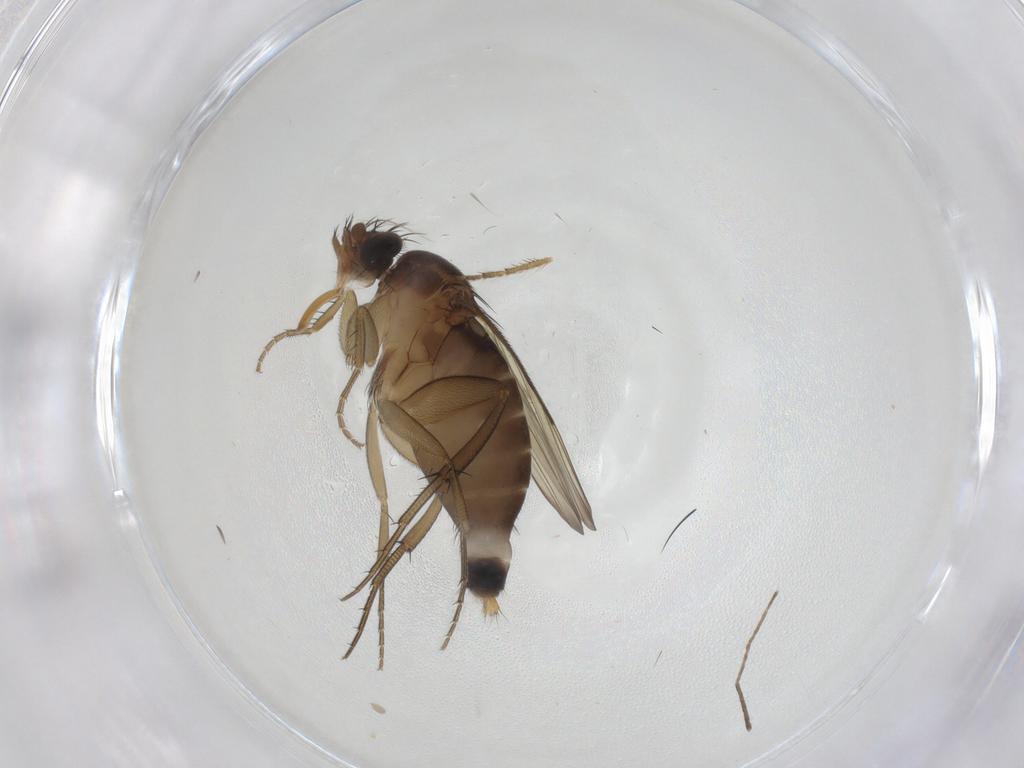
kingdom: Animalia
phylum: Arthropoda
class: Insecta
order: Diptera
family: Phoridae
